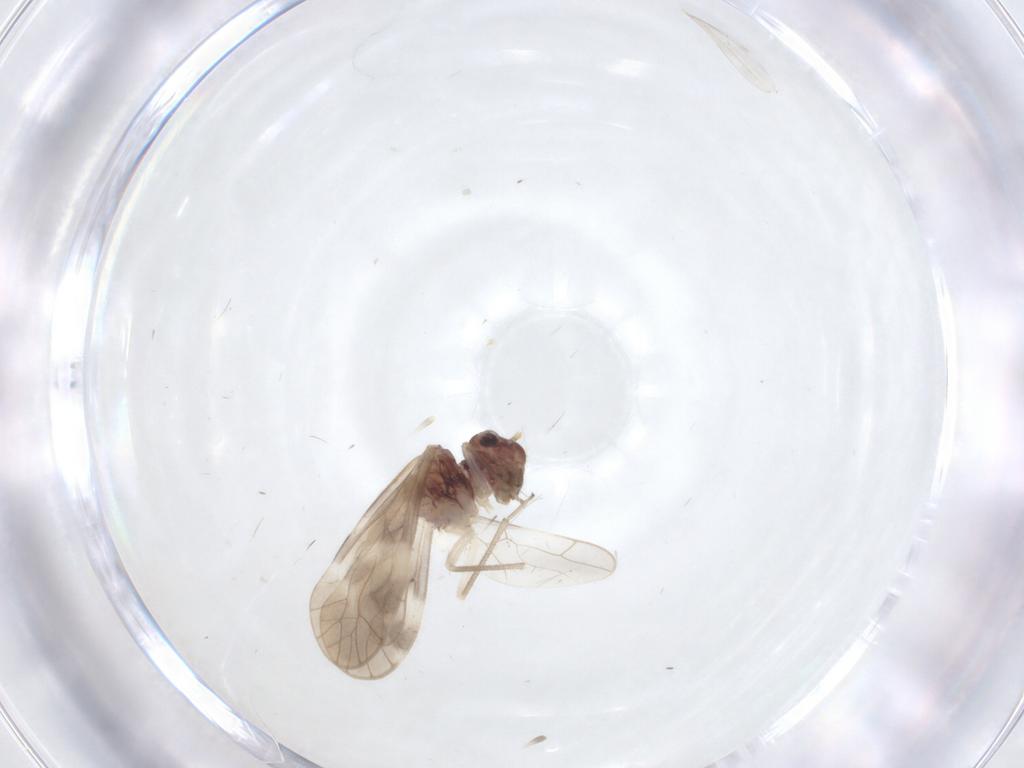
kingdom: Animalia
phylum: Arthropoda
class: Insecta
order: Psocodea
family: Caeciliusidae
